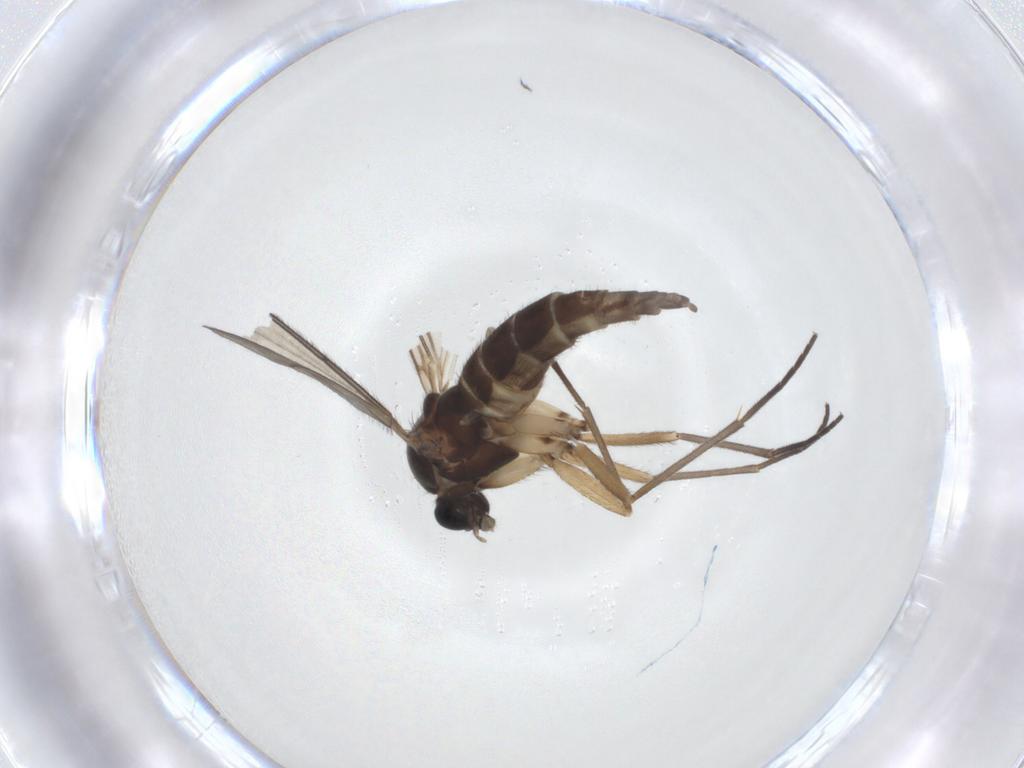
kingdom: Animalia
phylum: Arthropoda
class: Insecta
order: Diptera
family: Sciaridae
